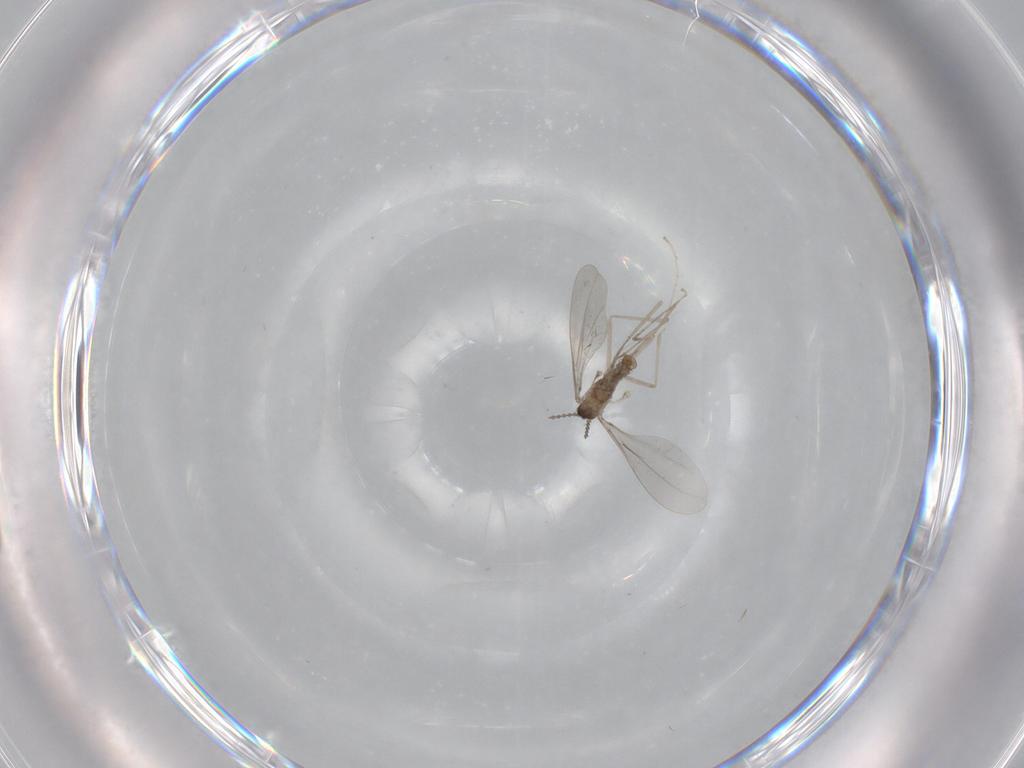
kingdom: Animalia
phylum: Arthropoda
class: Insecta
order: Diptera
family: Cecidomyiidae
